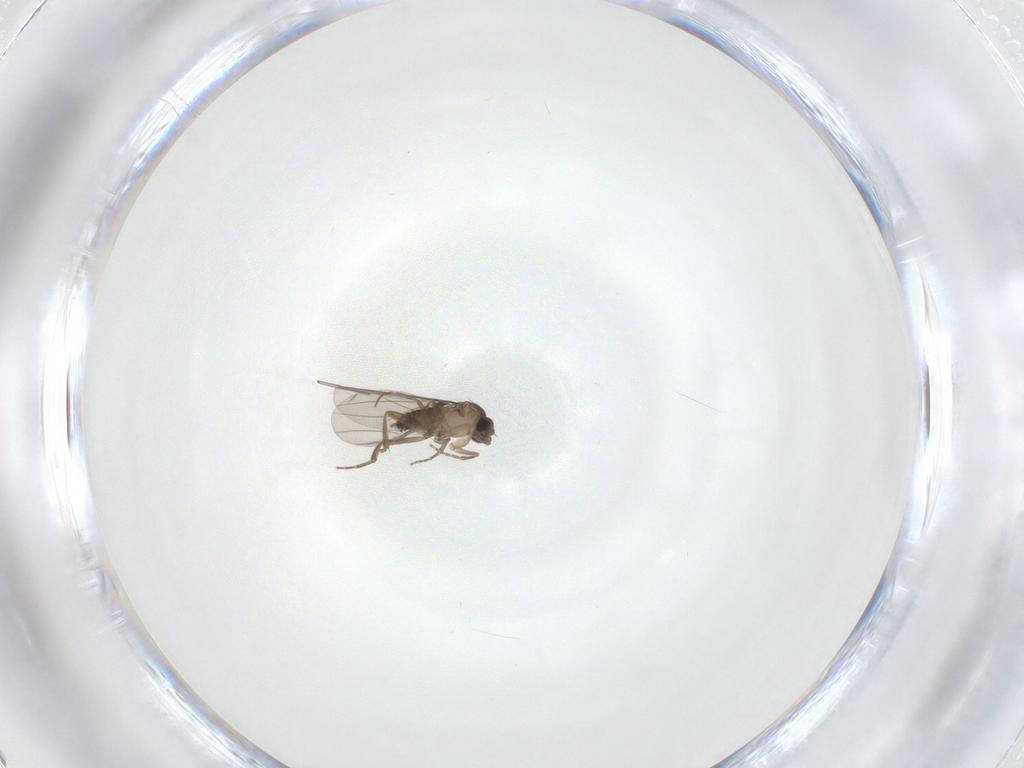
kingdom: Animalia
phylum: Arthropoda
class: Insecta
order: Diptera
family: Phoridae
